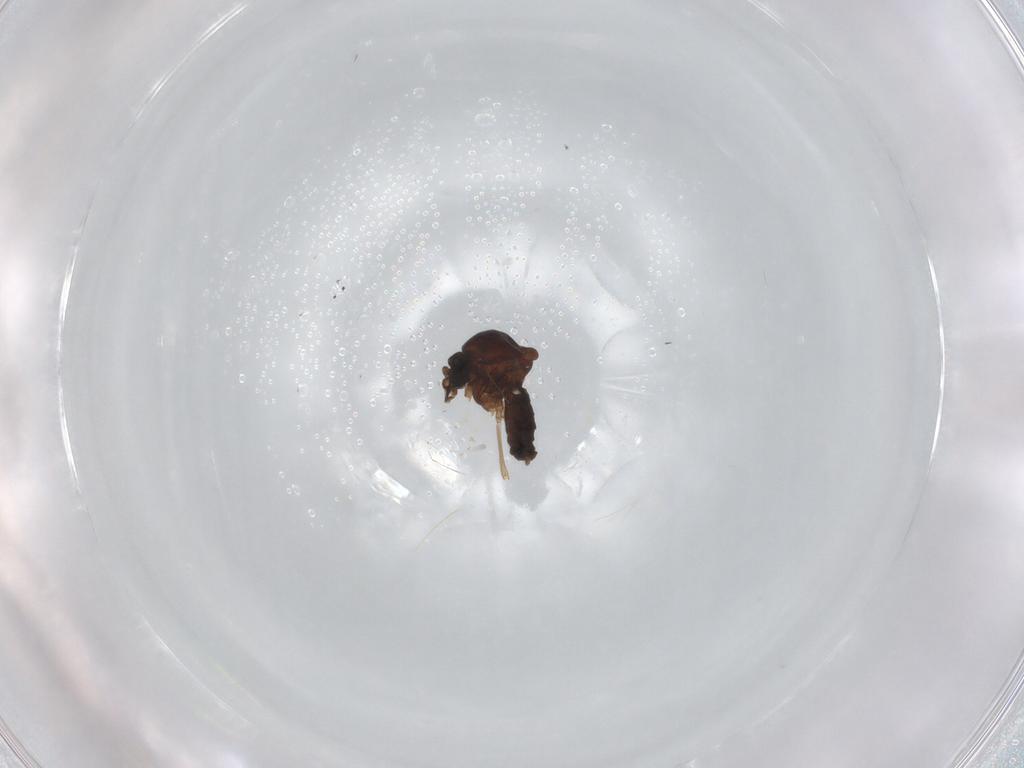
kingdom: Animalia
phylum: Arthropoda
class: Insecta
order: Diptera
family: Ceratopogonidae
